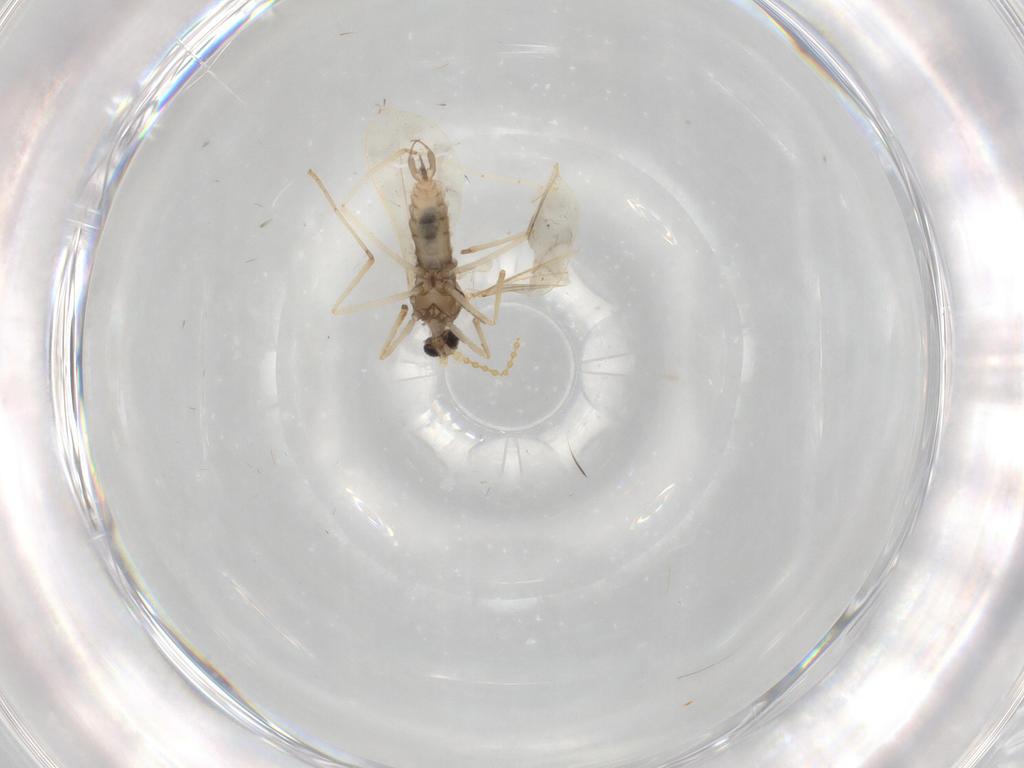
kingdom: Animalia
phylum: Arthropoda
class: Insecta
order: Diptera
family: Cecidomyiidae
